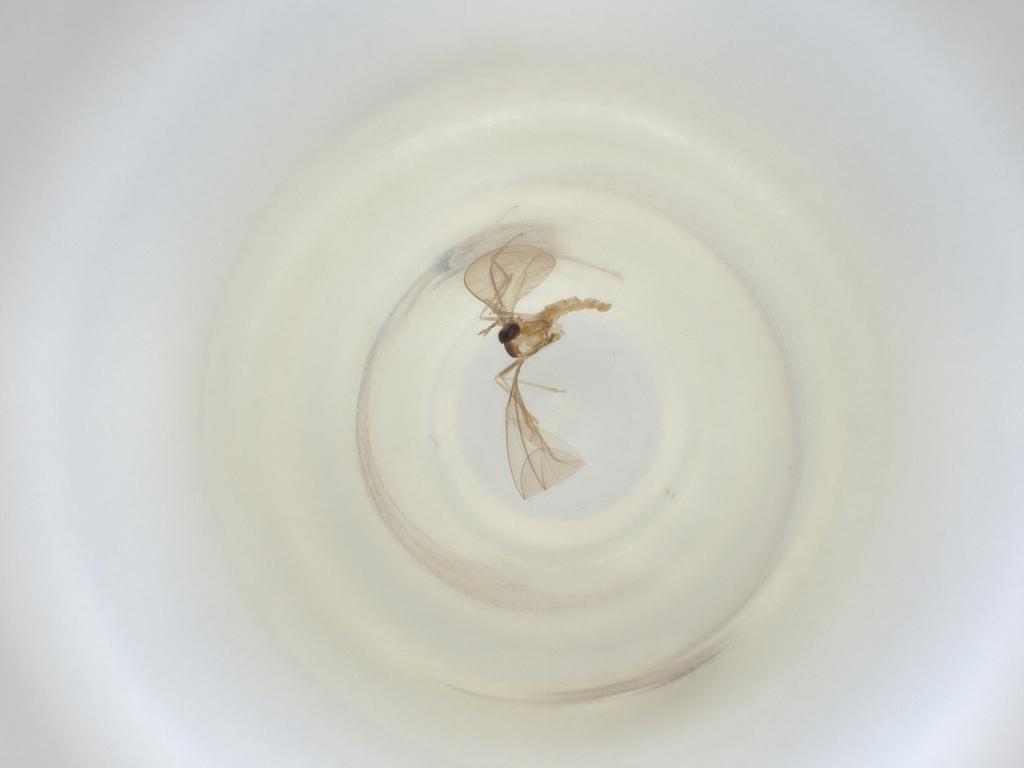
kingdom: Animalia
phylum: Arthropoda
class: Insecta
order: Diptera
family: Cecidomyiidae
